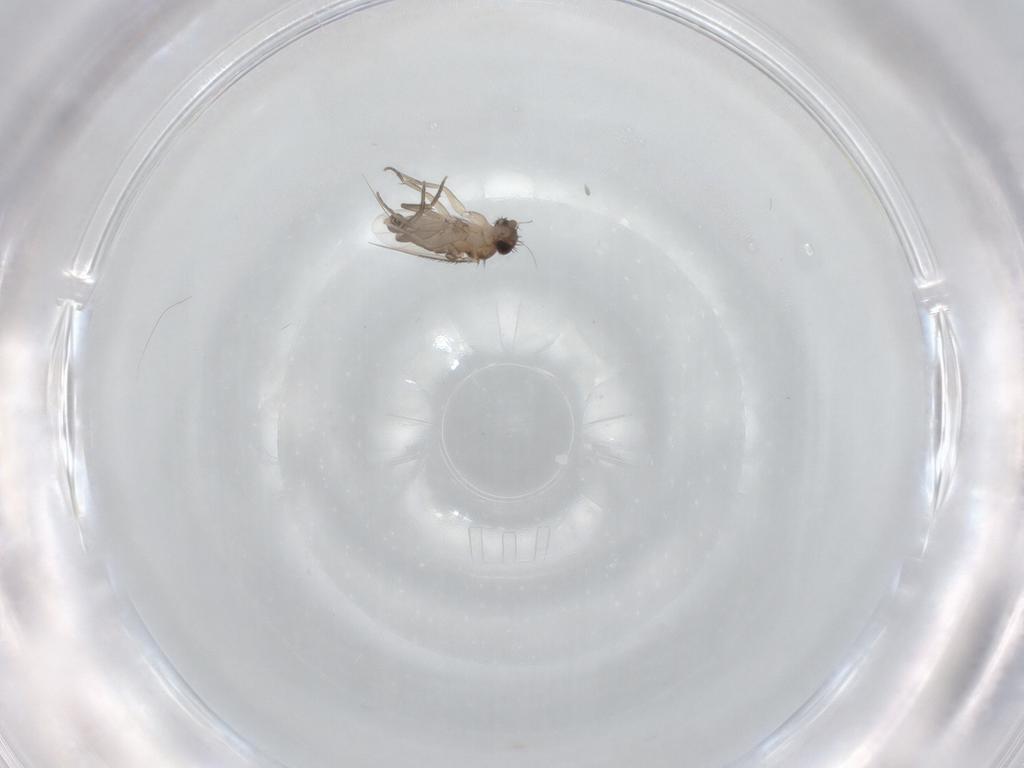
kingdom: Animalia
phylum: Arthropoda
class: Insecta
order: Diptera
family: Phoridae
